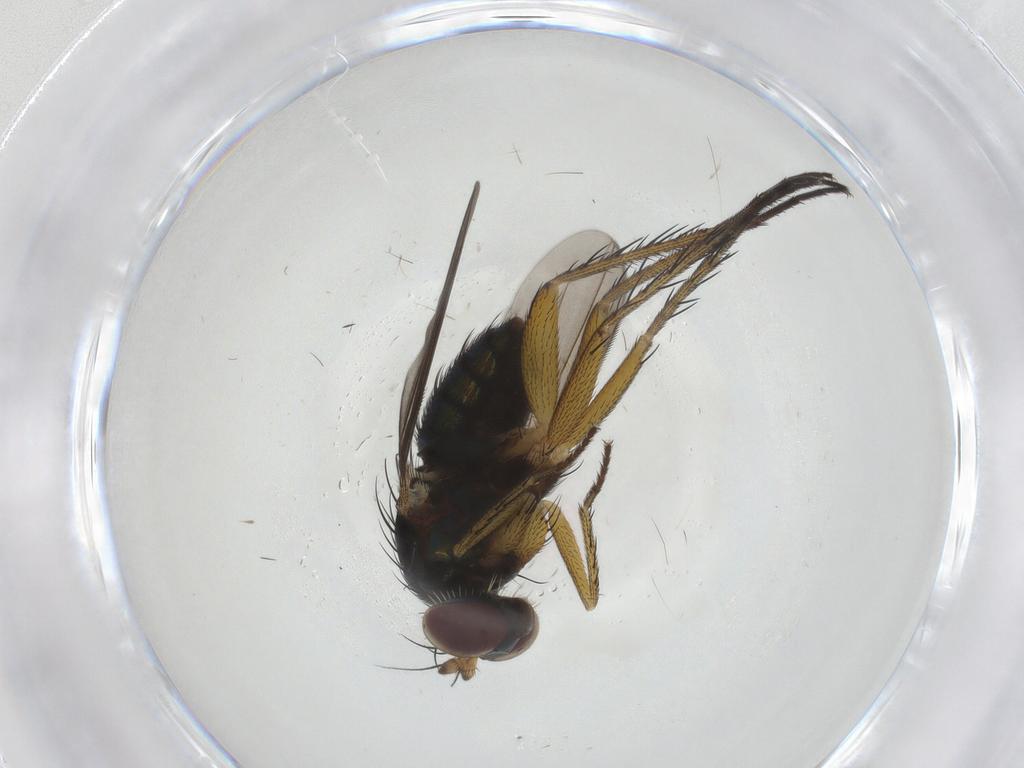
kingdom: Animalia
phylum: Arthropoda
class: Insecta
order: Diptera
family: Dolichopodidae
